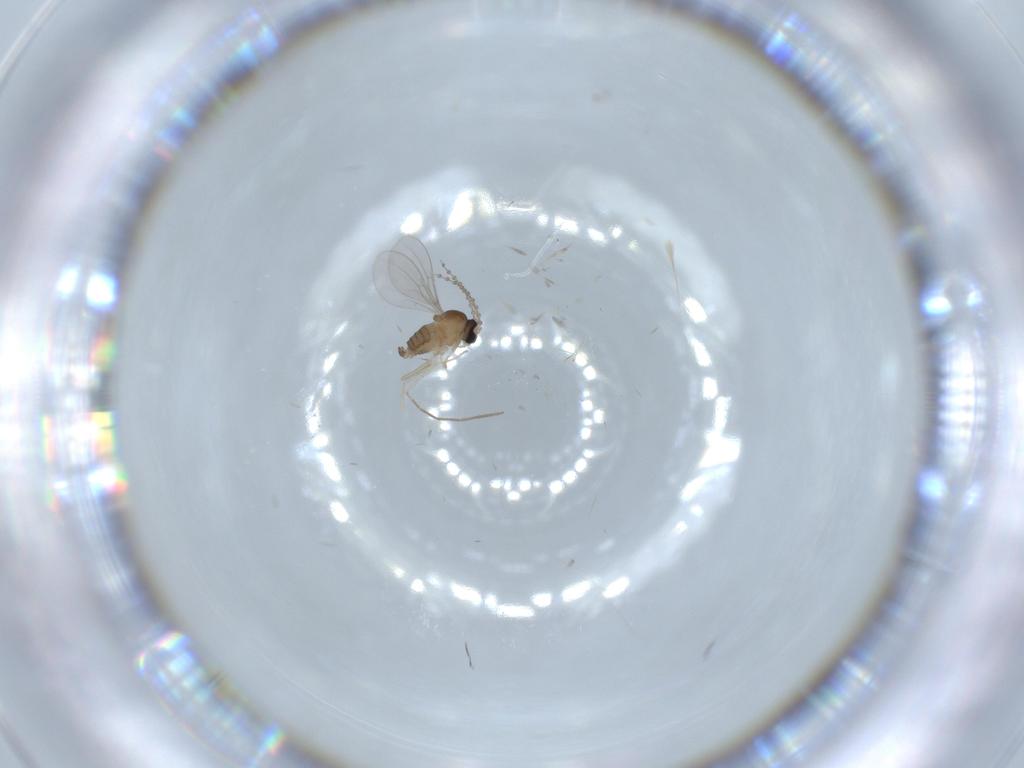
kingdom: Animalia
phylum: Arthropoda
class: Insecta
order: Diptera
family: Cecidomyiidae
